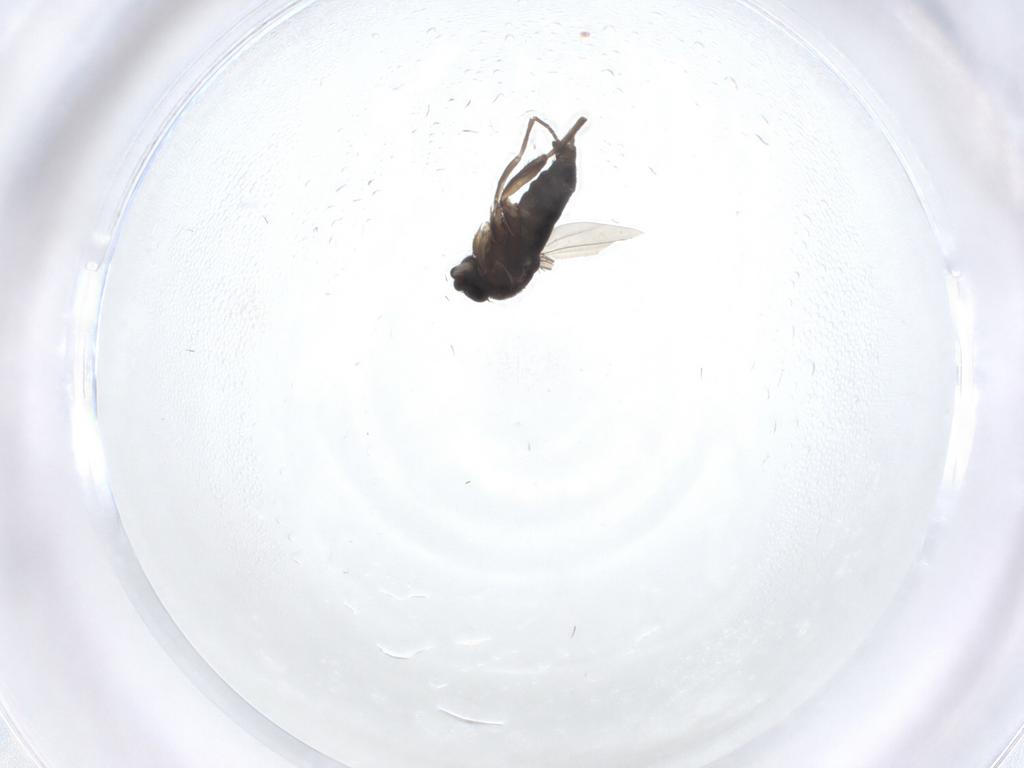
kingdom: Animalia
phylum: Arthropoda
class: Insecta
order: Diptera
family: Phoridae
